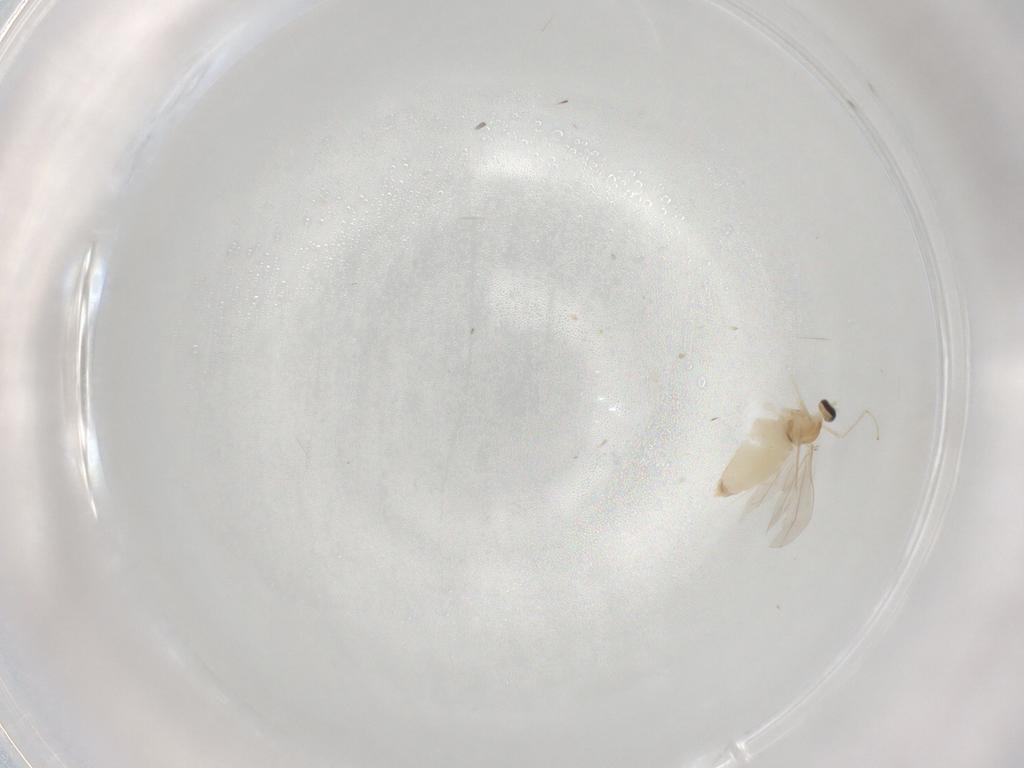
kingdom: Animalia
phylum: Arthropoda
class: Insecta
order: Diptera
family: Cecidomyiidae
